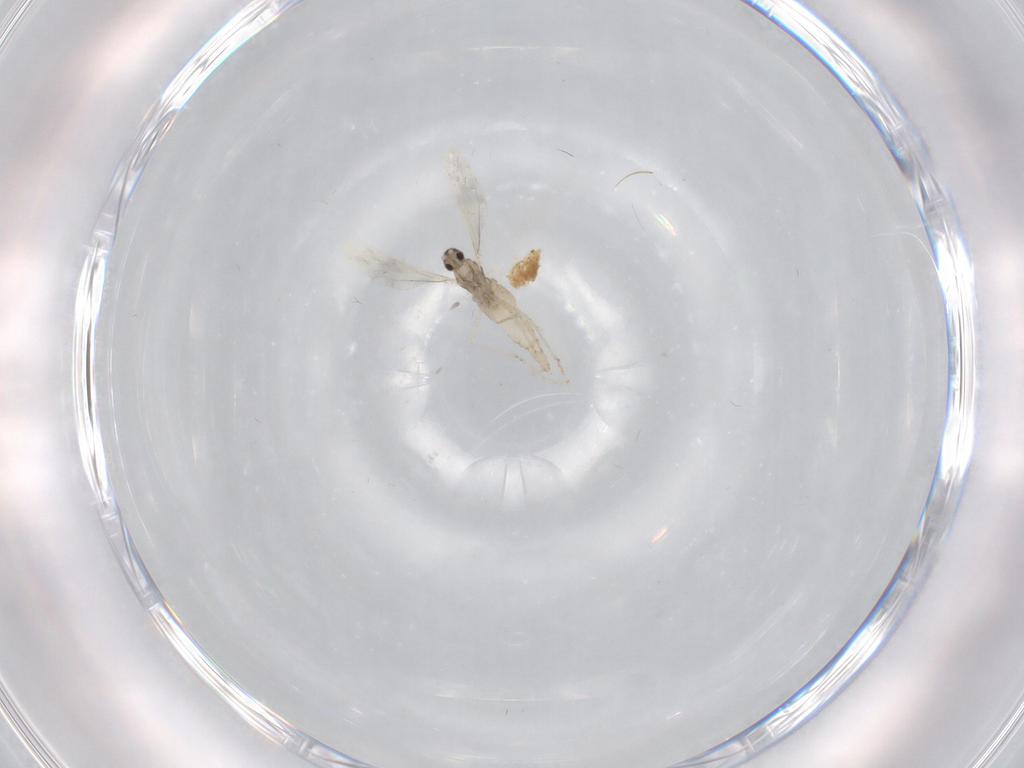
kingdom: Animalia
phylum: Arthropoda
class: Insecta
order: Diptera
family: Cecidomyiidae
